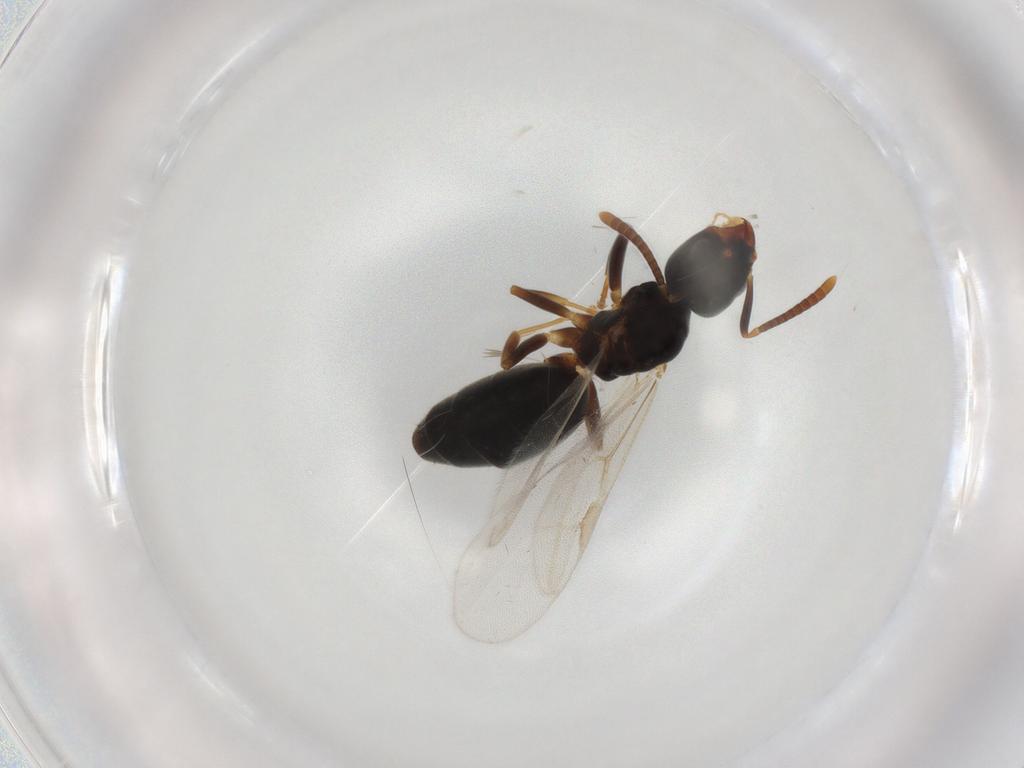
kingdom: Animalia
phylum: Arthropoda
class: Insecta
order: Hymenoptera
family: Formicidae
